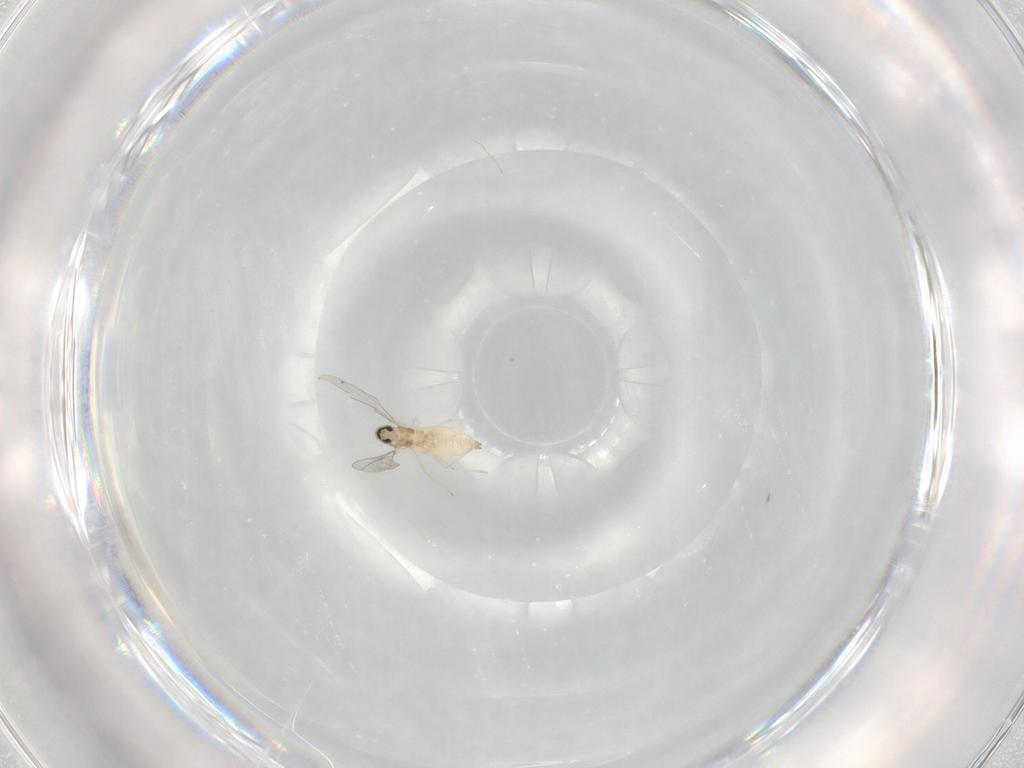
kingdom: Animalia
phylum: Arthropoda
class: Insecta
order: Diptera
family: Cecidomyiidae
